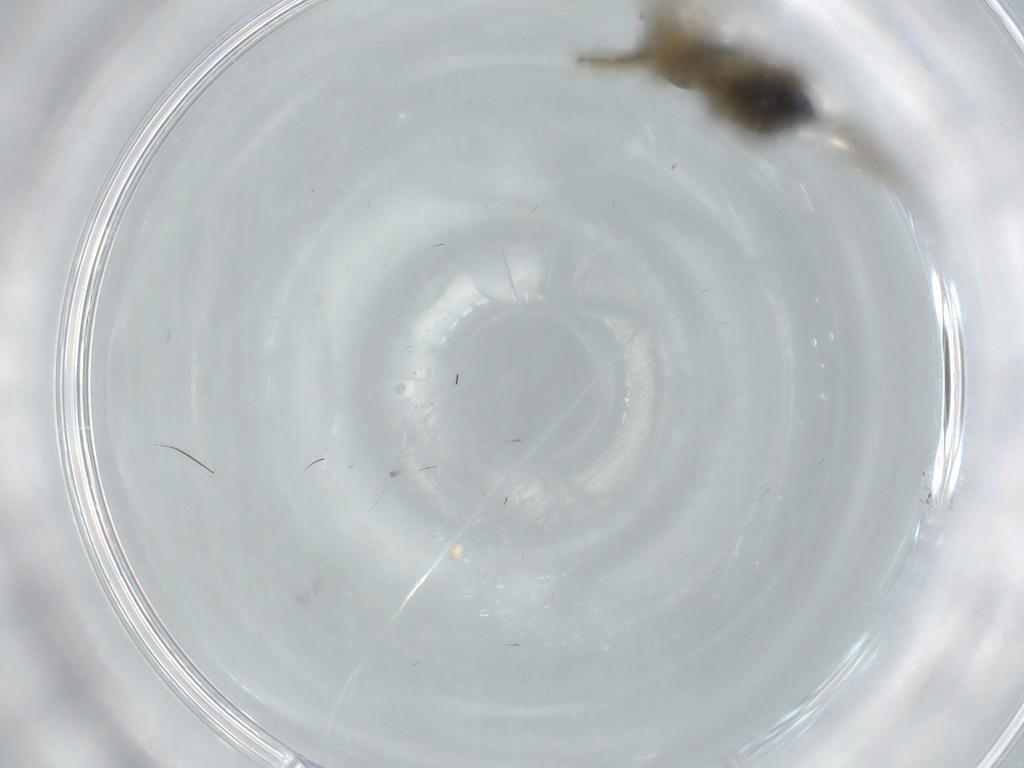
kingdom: Animalia
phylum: Arthropoda
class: Insecta
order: Diptera
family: Dolichopodidae
